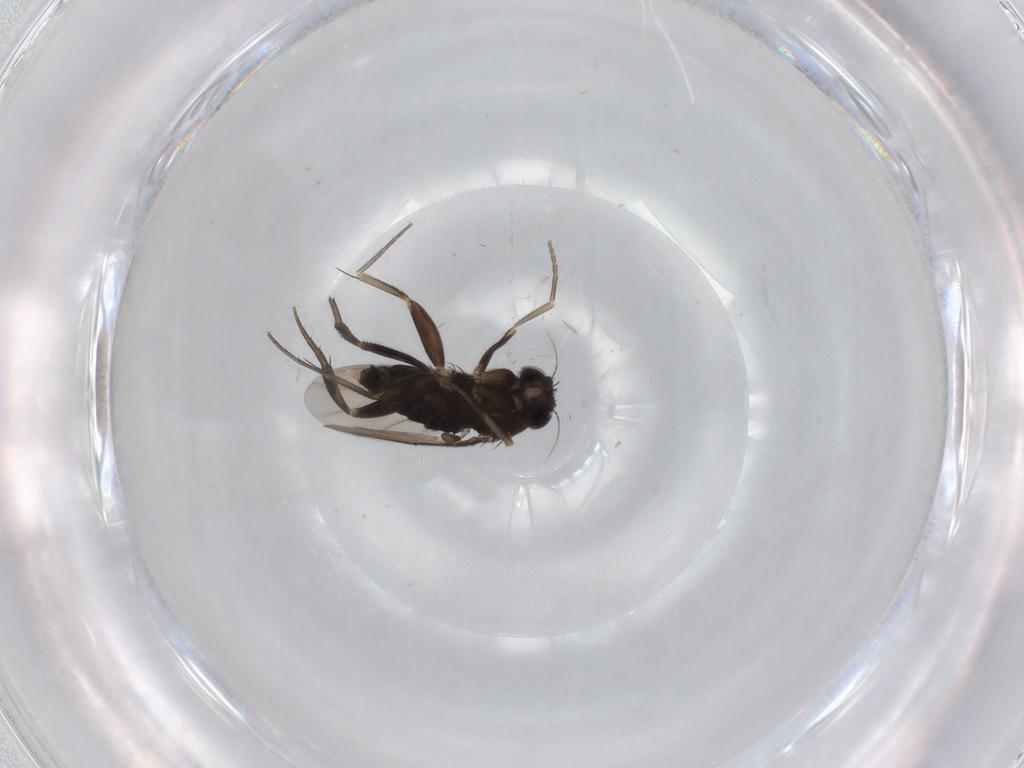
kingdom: Animalia
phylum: Arthropoda
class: Insecta
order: Diptera
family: Phoridae
